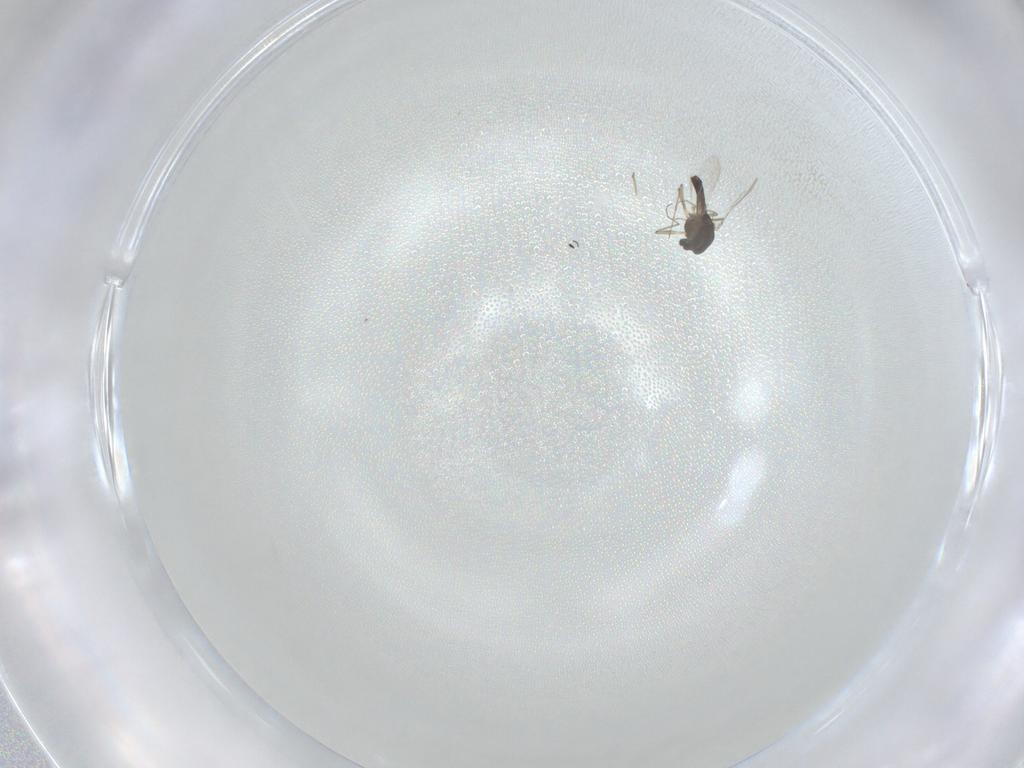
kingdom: Animalia
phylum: Arthropoda
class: Insecta
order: Diptera
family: Chironomidae
